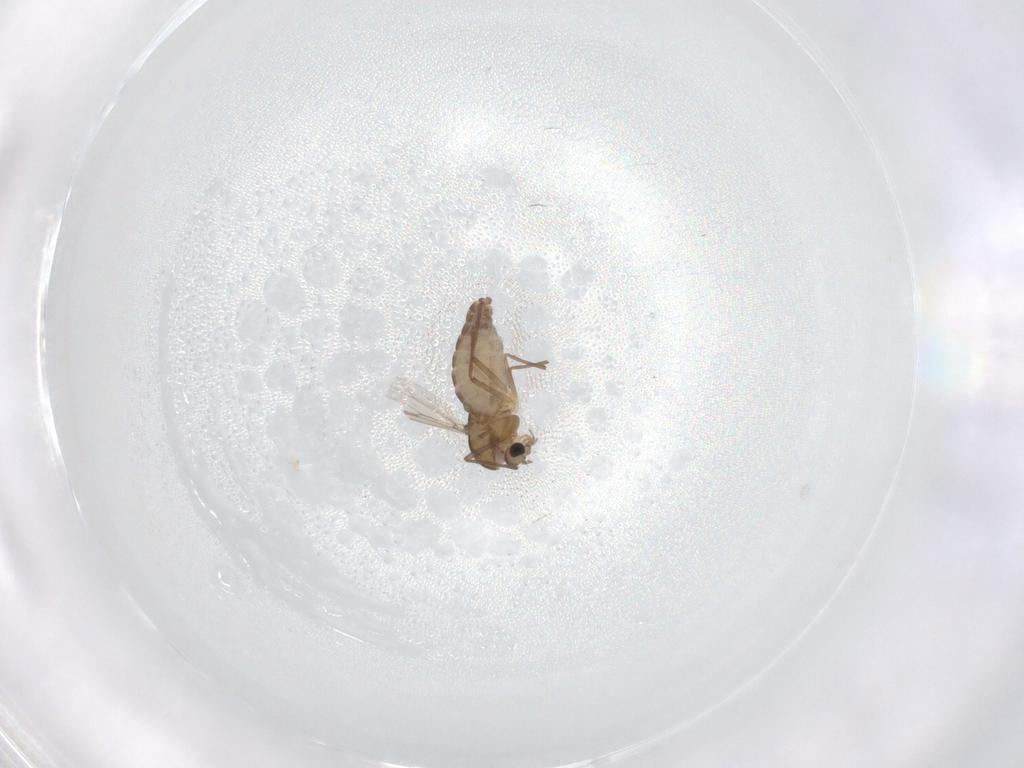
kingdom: Animalia
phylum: Arthropoda
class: Insecta
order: Diptera
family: Chironomidae
